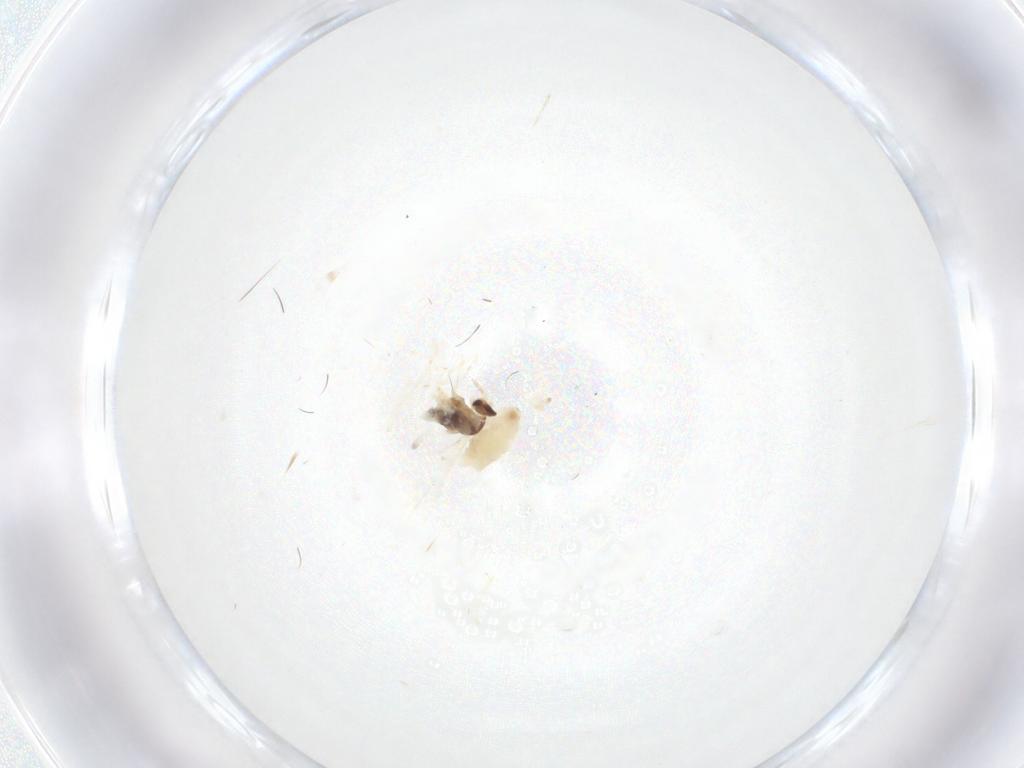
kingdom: Animalia
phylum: Arthropoda
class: Insecta
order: Diptera
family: Cecidomyiidae
